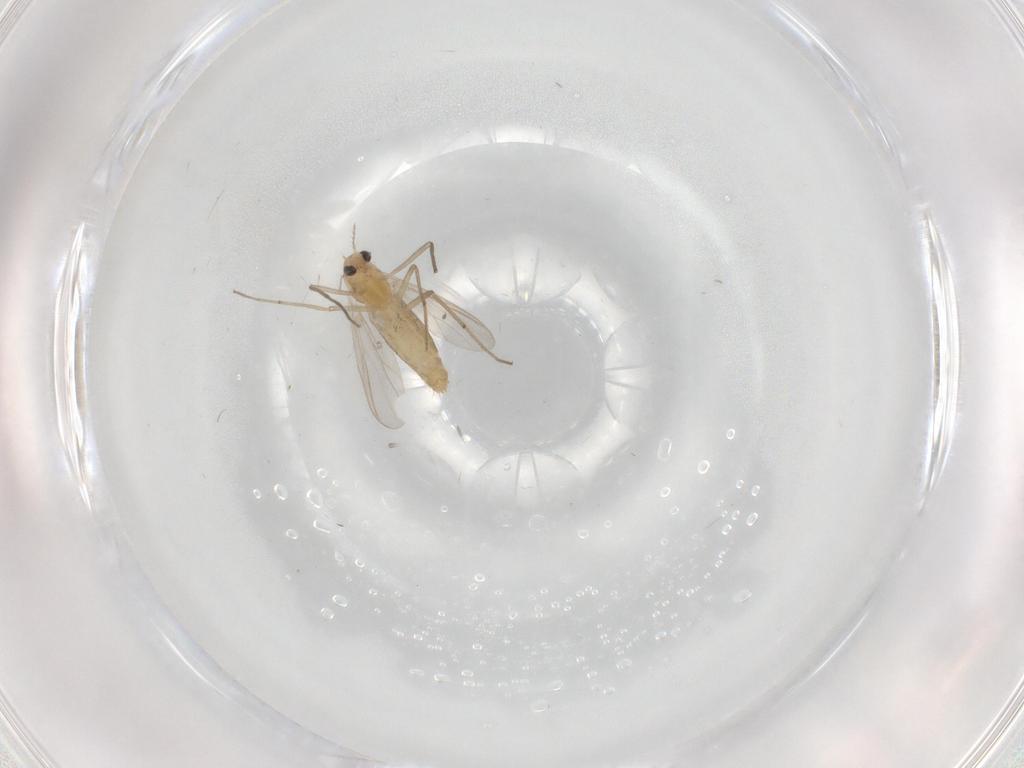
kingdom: Animalia
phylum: Arthropoda
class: Insecta
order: Diptera
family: Chironomidae
